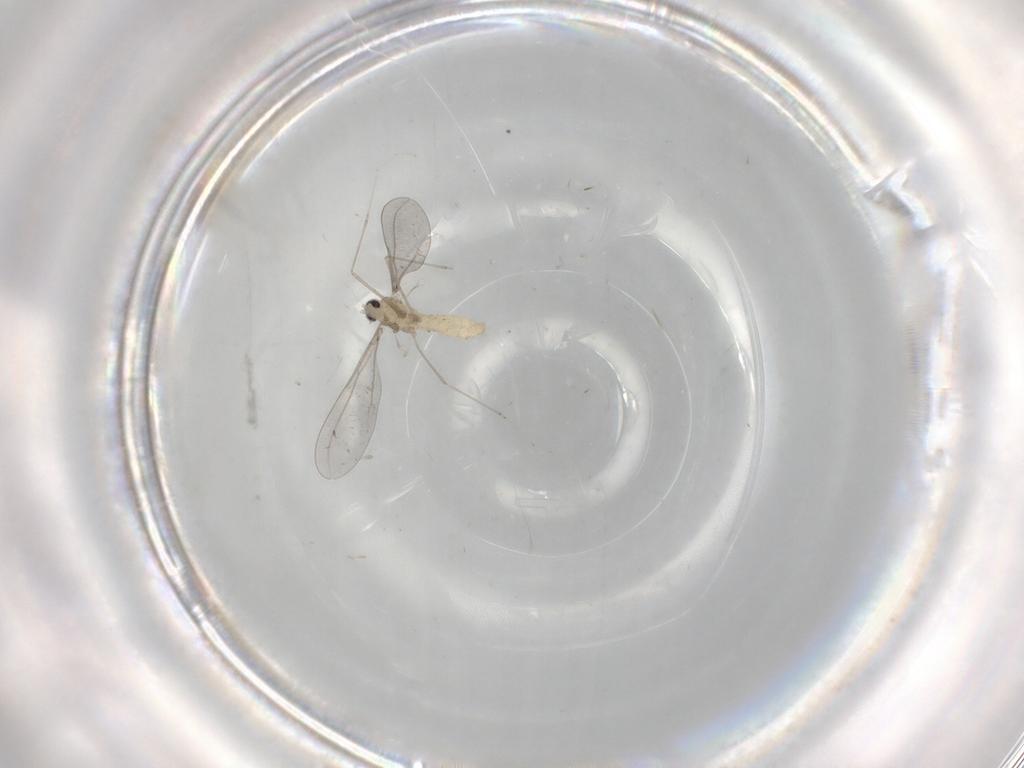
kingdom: Animalia
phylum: Arthropoda
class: Insecta
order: Diptera
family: Cecidomyiidae
